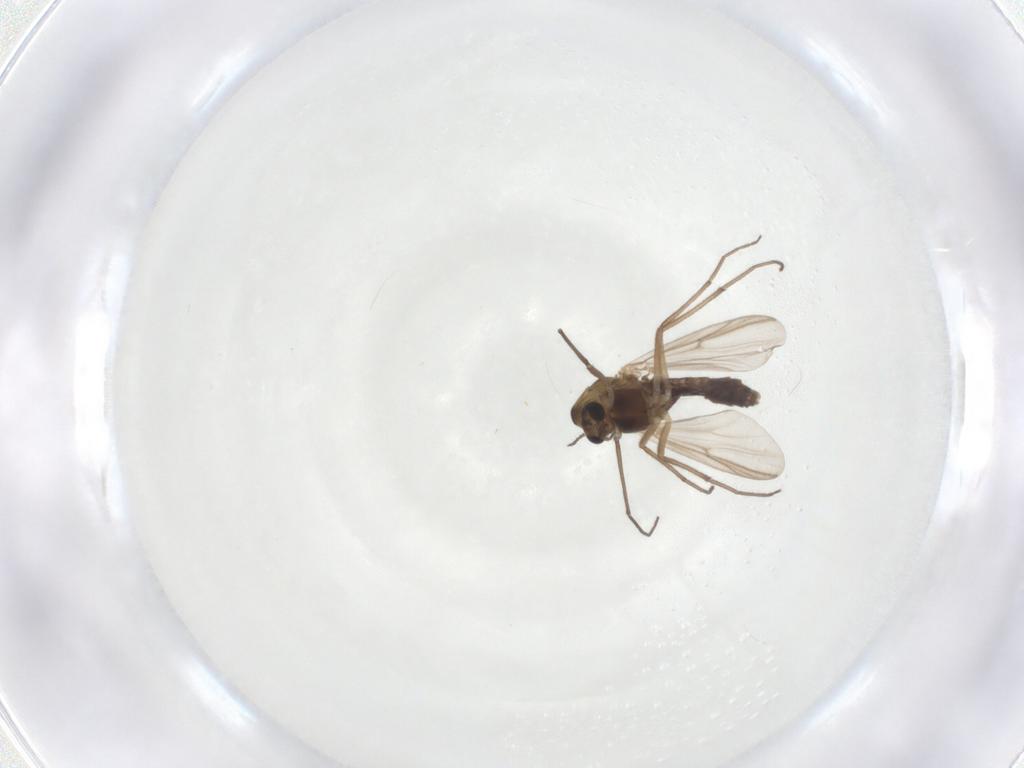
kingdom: Animalia
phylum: Arthropoda
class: Insecta
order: Diptera
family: Chironomidae
